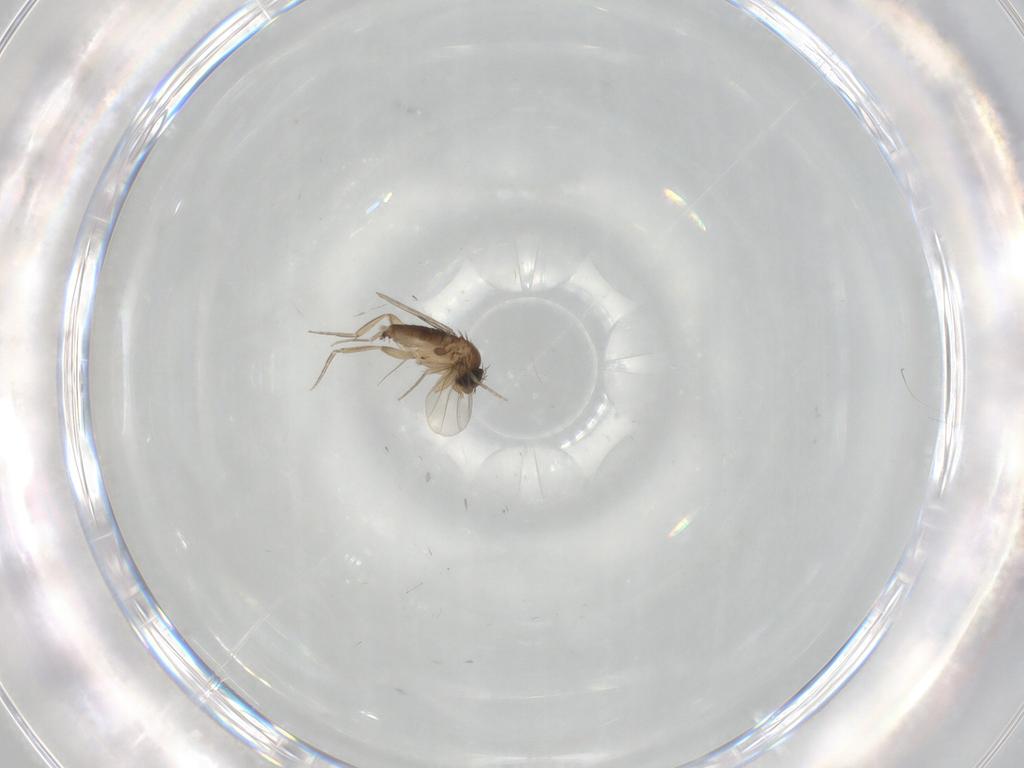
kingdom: Animalia
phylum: Arthropoda
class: Insecta
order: Diptera
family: Phoridae
